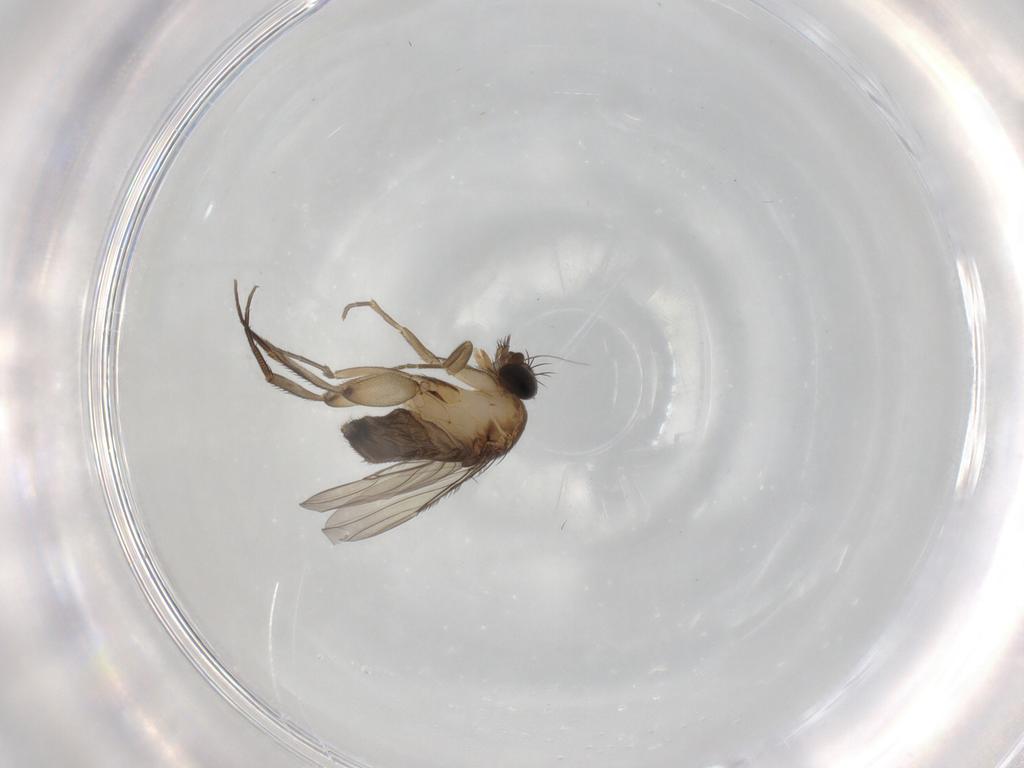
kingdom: Animalia
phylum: Arthropoda
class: Insecta
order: Diptera
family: Phoridae
